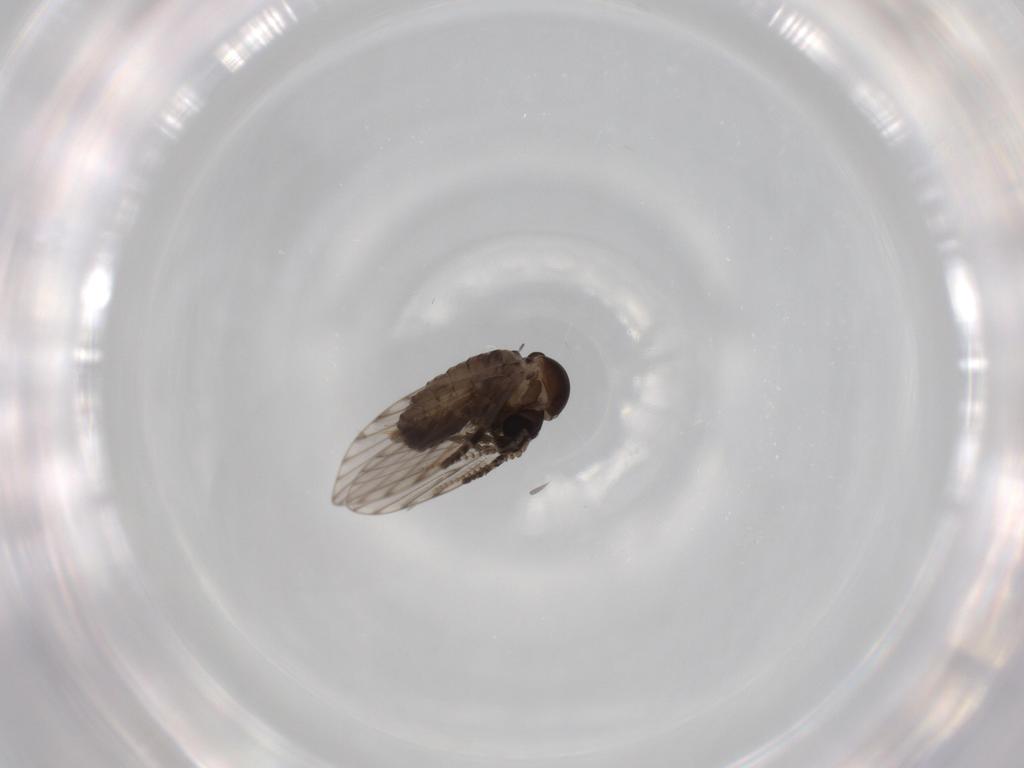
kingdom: Animalia
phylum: Arthropoda
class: Insecta
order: Diptera
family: Psychodidae
